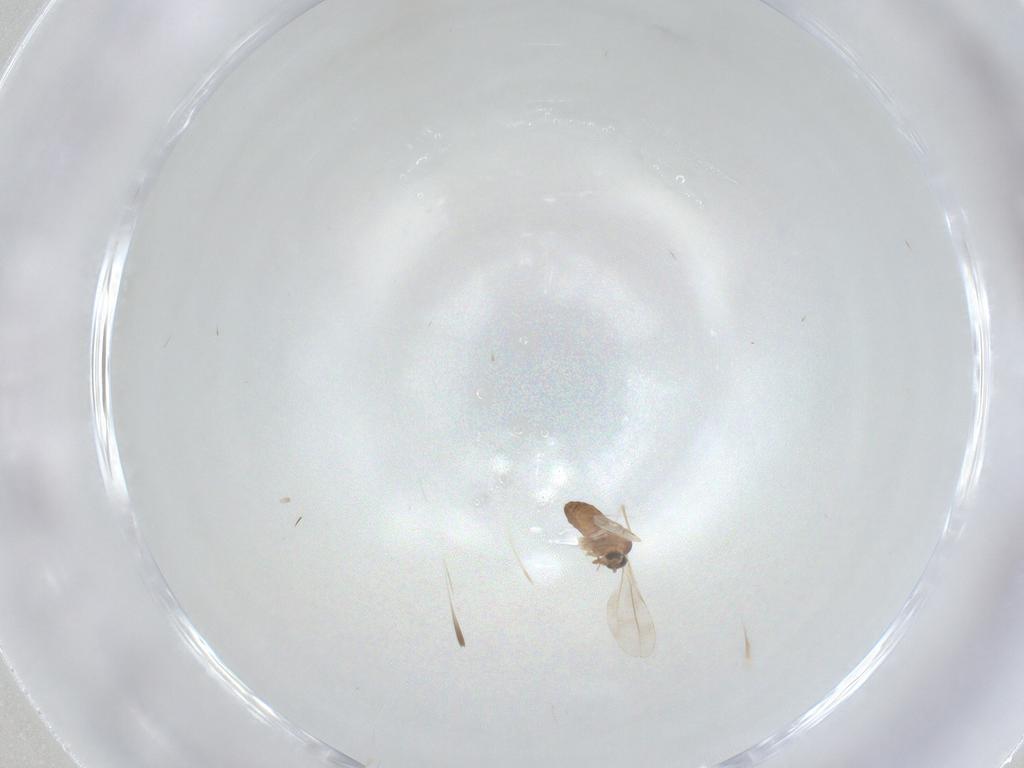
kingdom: Animalia
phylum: Arthropoda
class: Insecta
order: Diptera
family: Cecidomyiidae
